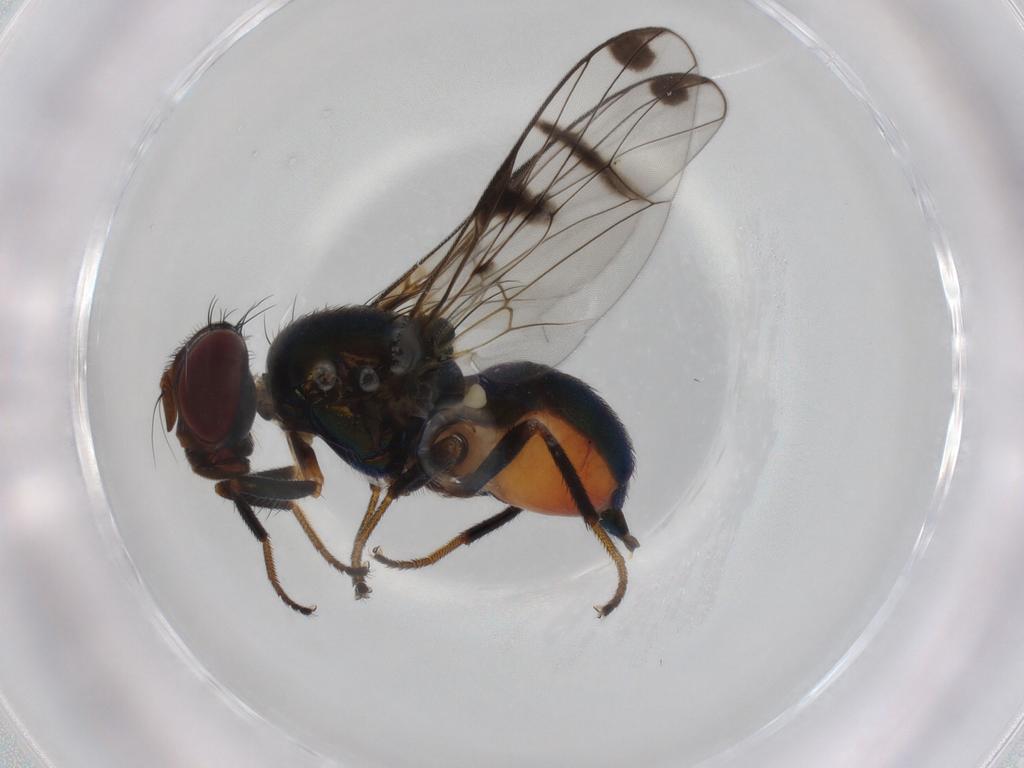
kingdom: Animalia
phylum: Arthropoda
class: Insecta
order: Diptera
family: Platystomatidae
